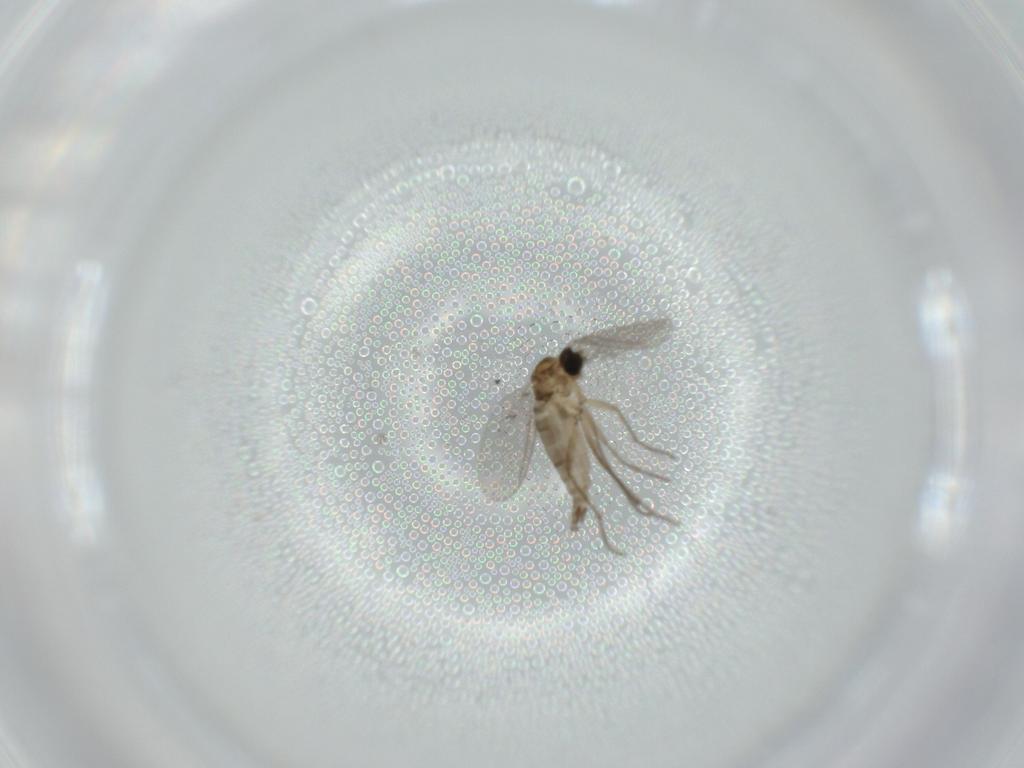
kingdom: Animalia
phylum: Arthropoda
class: Insecta
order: Diptera
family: Sciaridae
